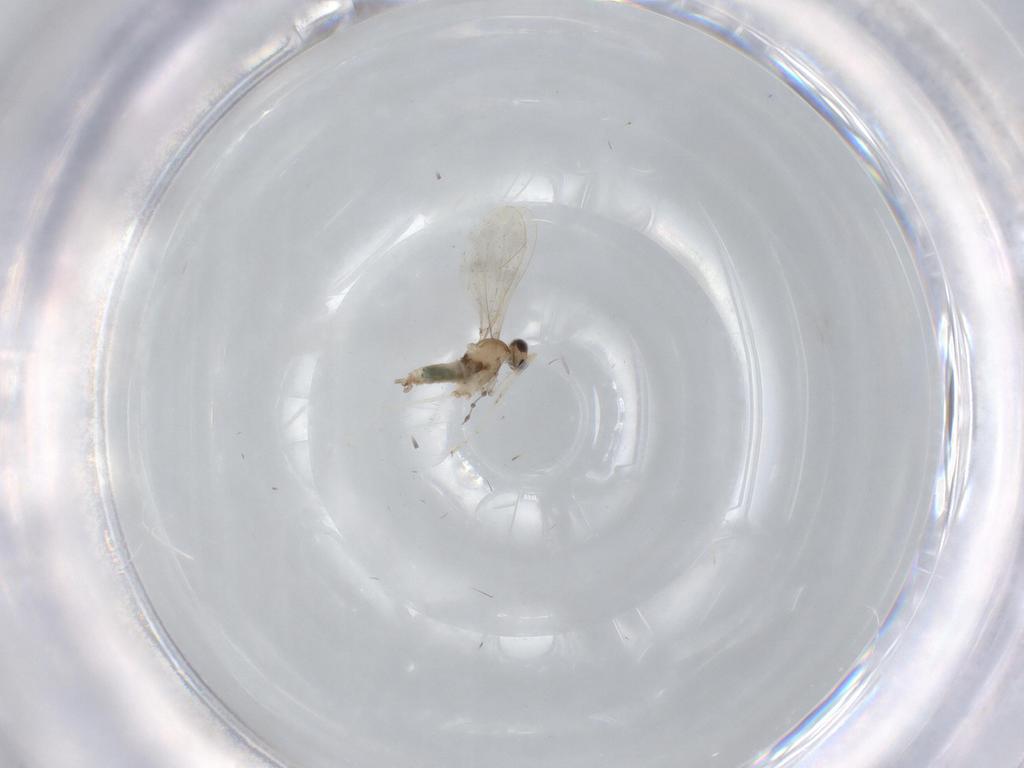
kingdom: Animalia
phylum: Arthropoda
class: Insecta
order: Diptera
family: Cecidomyiidae
